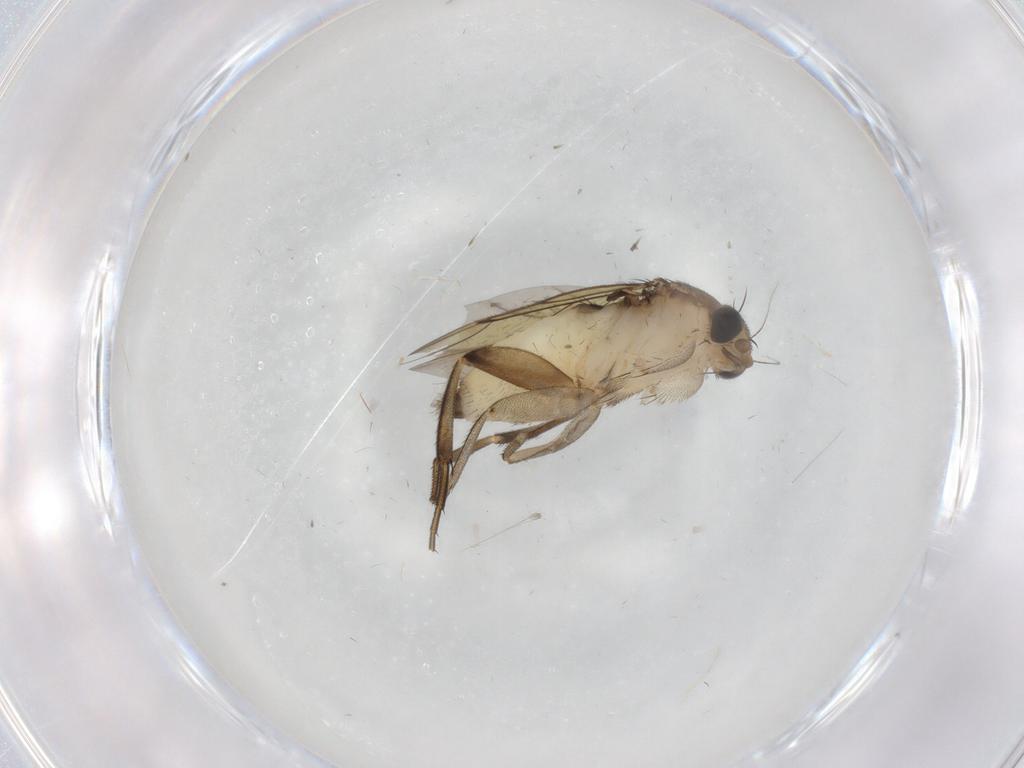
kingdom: Animalia
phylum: Arthropoda
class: Insecta
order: Diptera
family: Phoridae
